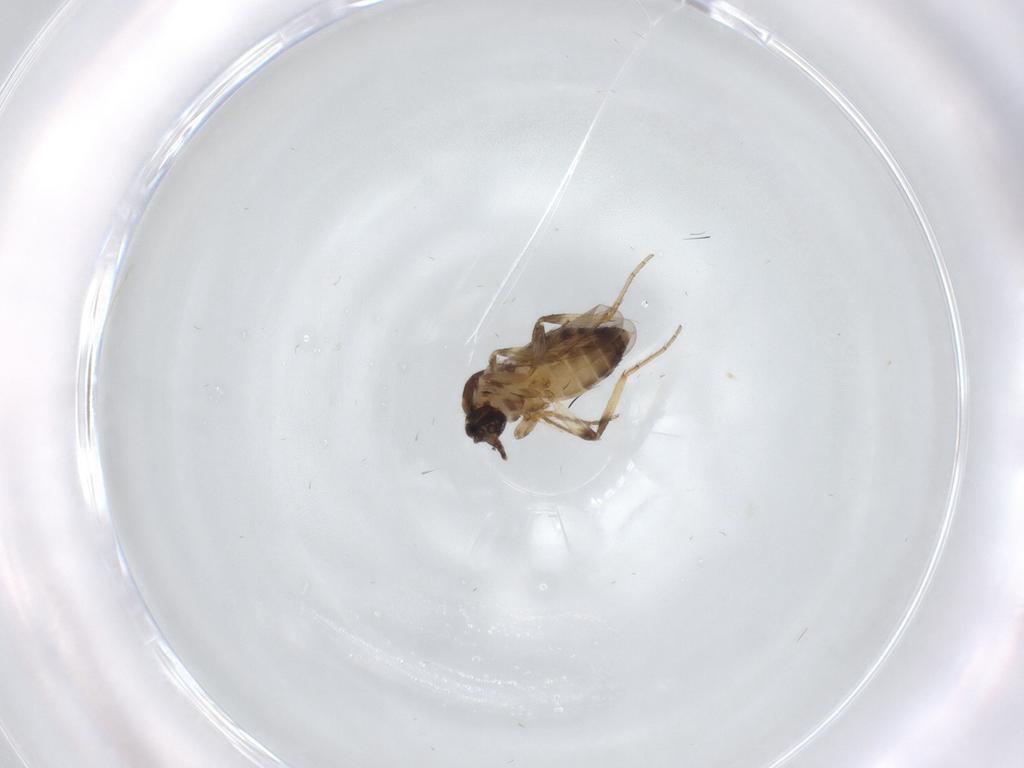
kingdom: Animalia
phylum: Arthropoda
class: Insecta
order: Diptera
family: Ceratopogonidae
